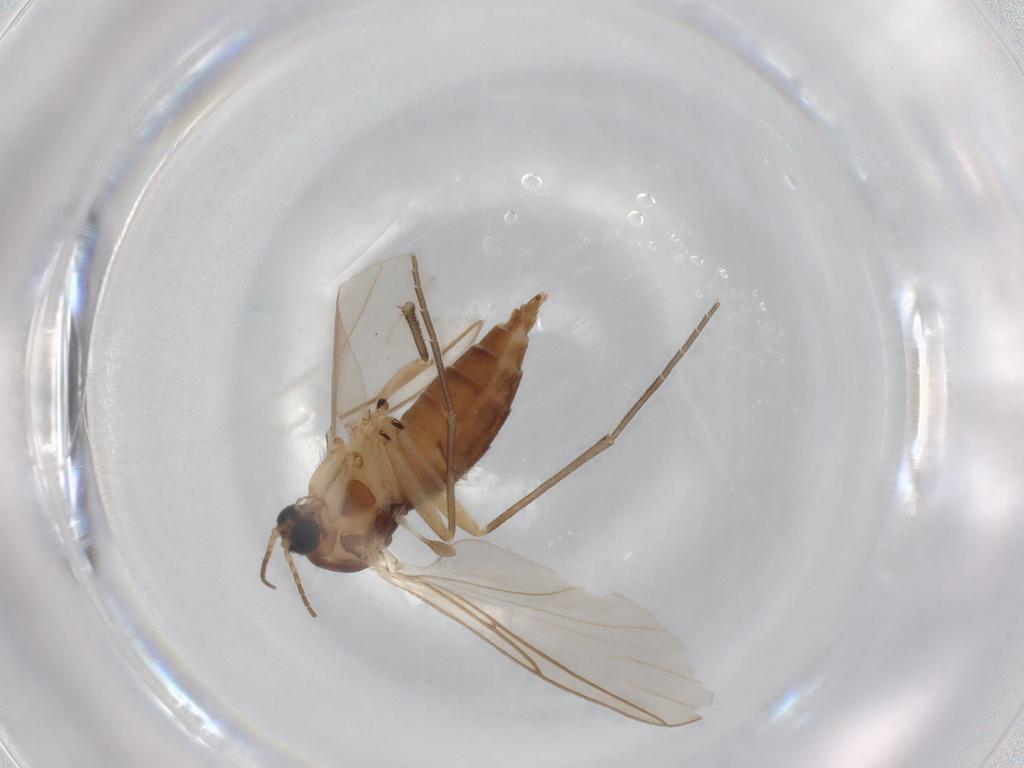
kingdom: Animalia
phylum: Arthropoda
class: Insecta
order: Diptera
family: Sciaridae
